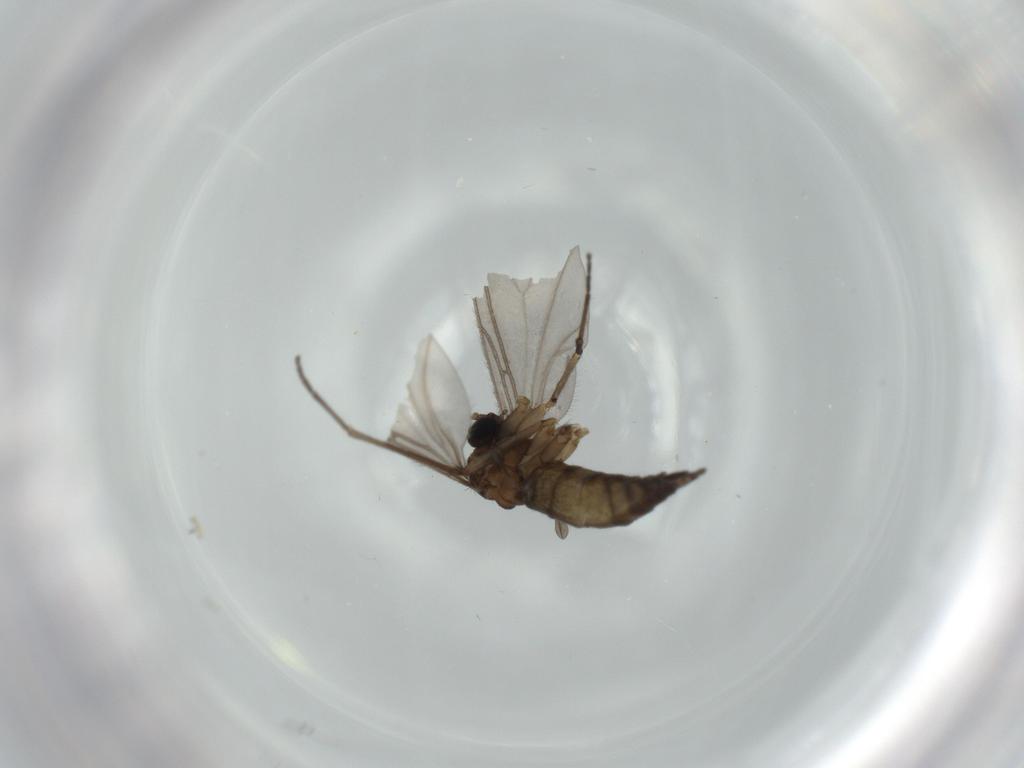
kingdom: Animalia
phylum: Arthropoda
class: Insecta
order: Diptera
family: Sciaridae
